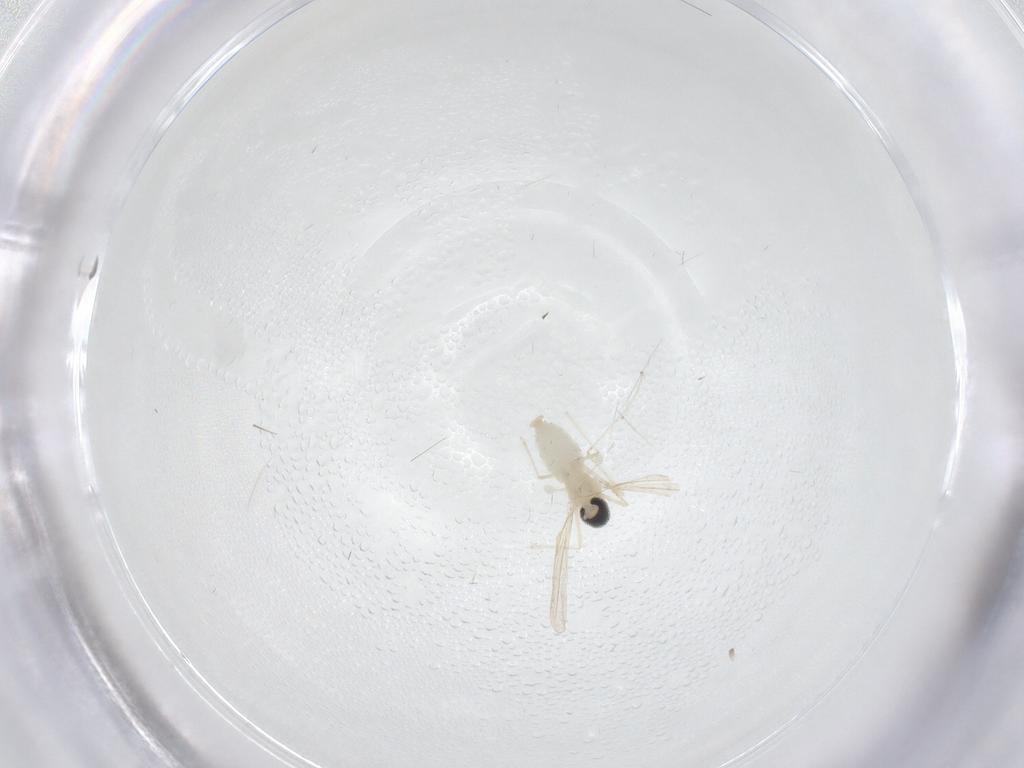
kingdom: Animalia
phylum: Arthropoda
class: Insecta
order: Diptera
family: Cecidomyiidae
